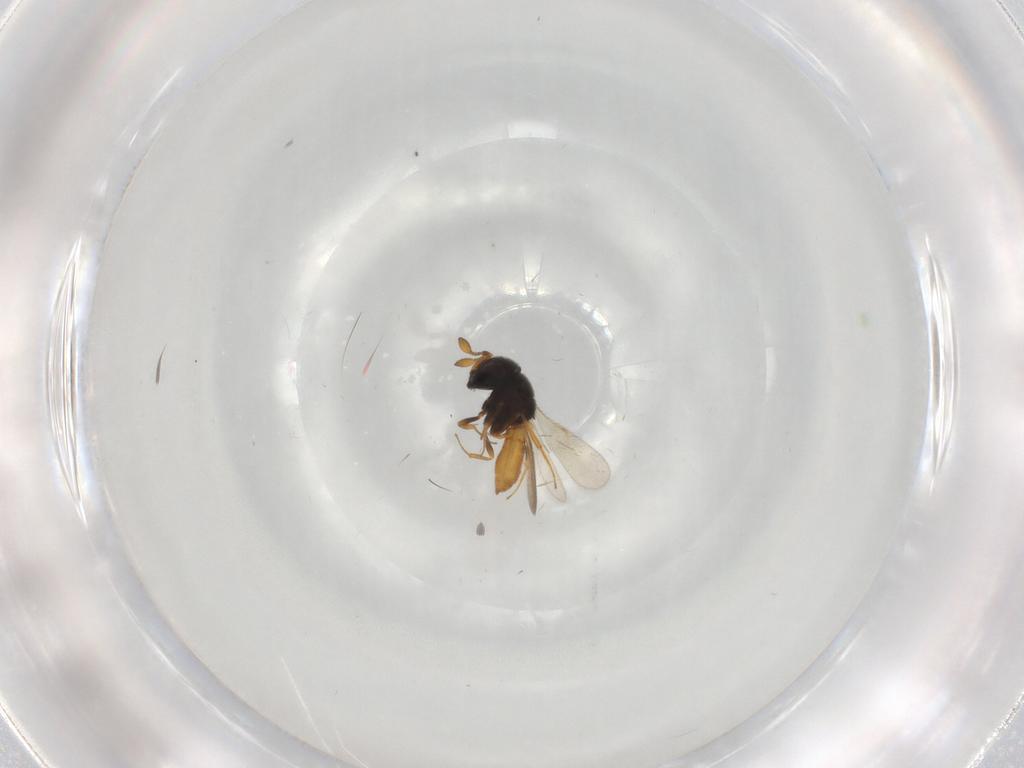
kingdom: Animalia
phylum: Arthropoda
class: Insecta
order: Hymenoptera
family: Scelionidae
